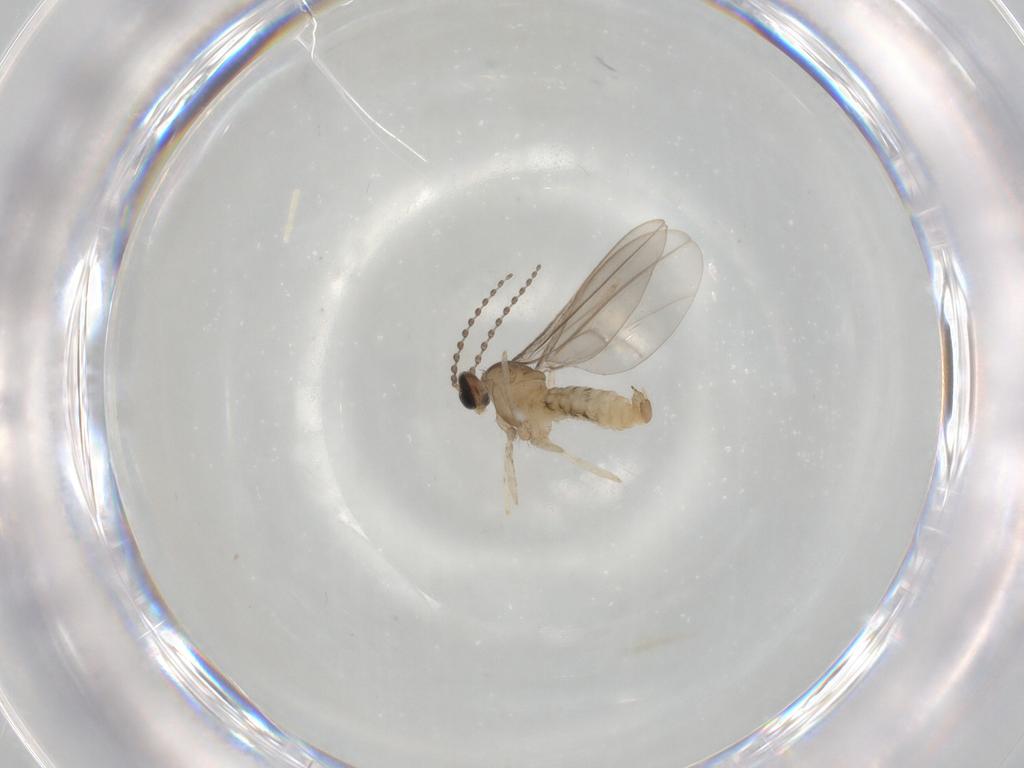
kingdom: Animalia
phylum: Arthropoda
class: Insecta
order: Diptera
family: Cecidomyiidae
